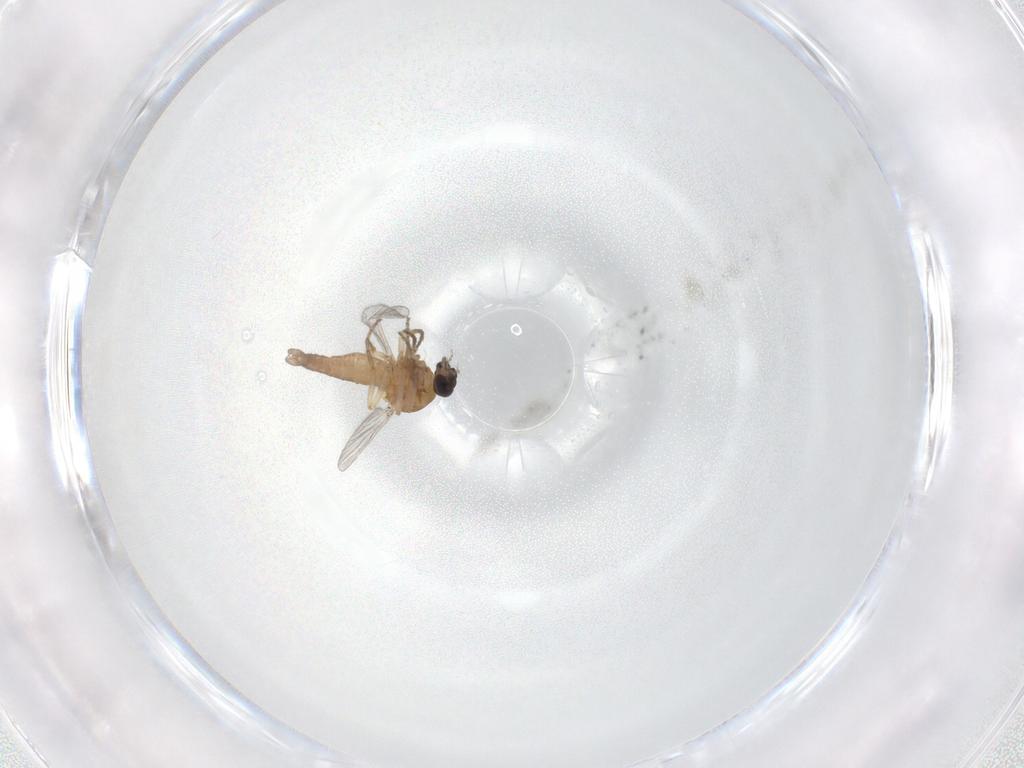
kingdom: Animalia
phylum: Arthropoda
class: Insecta
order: Diptera
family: Ceratopogonidae
